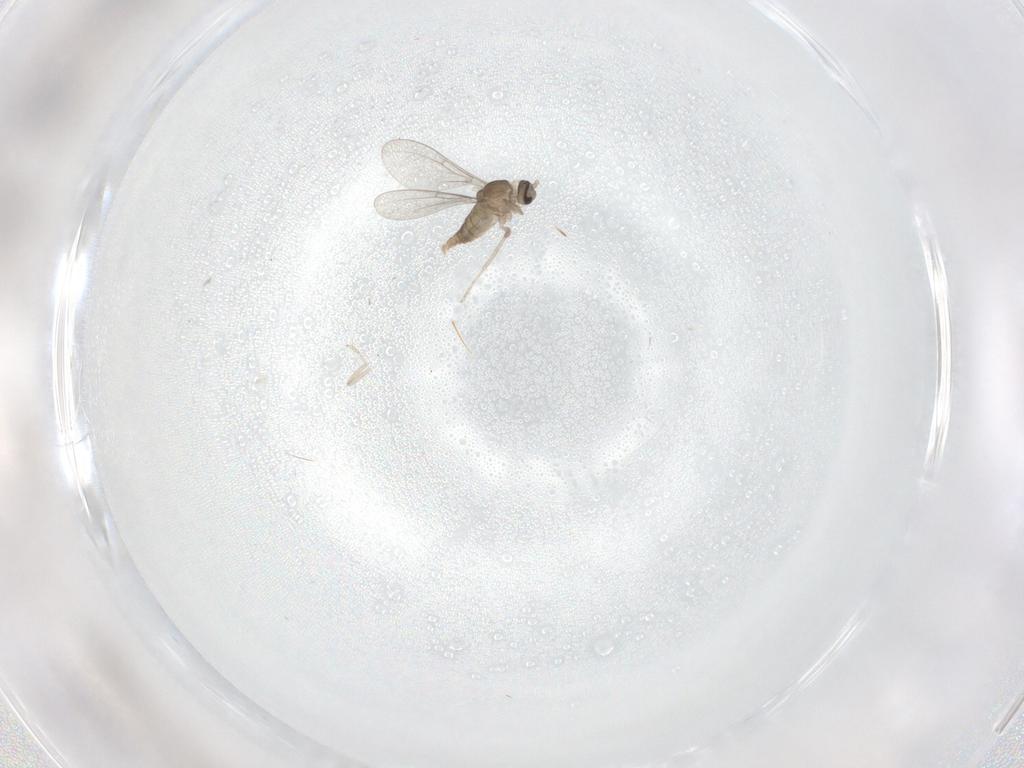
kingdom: Animalia
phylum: Arthropoda
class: Insecta
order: Diptera
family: Cecidomyiidae
